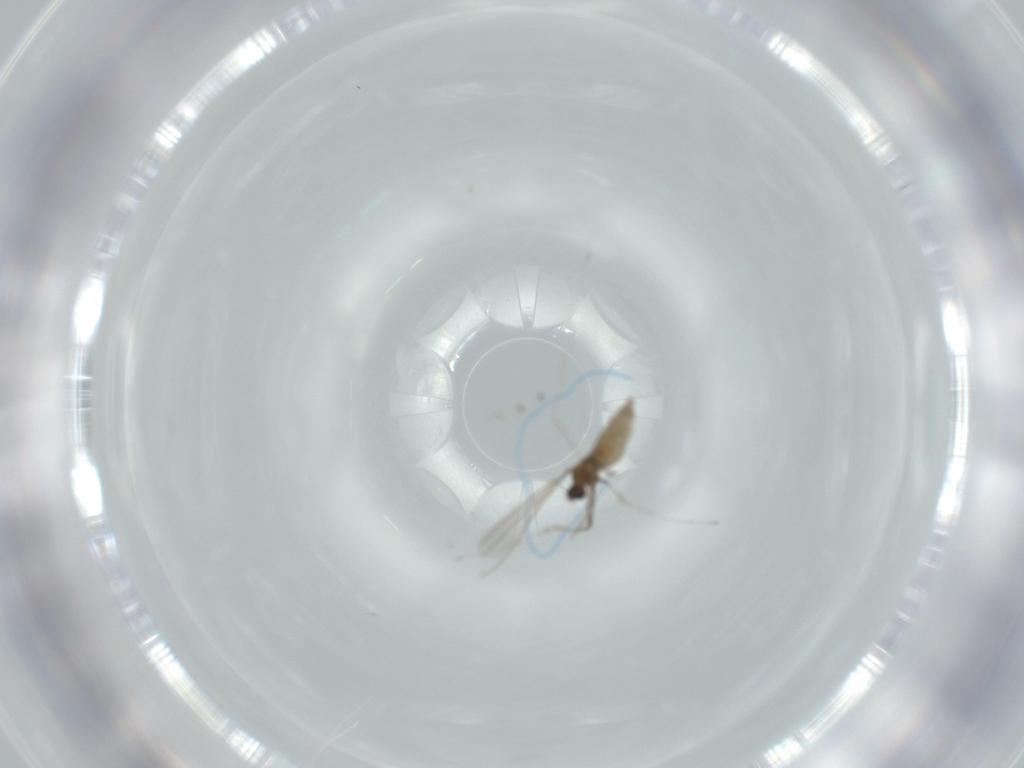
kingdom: Animalia
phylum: Arthropoda
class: Insecta
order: Diptera
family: Cecidomyiidae
